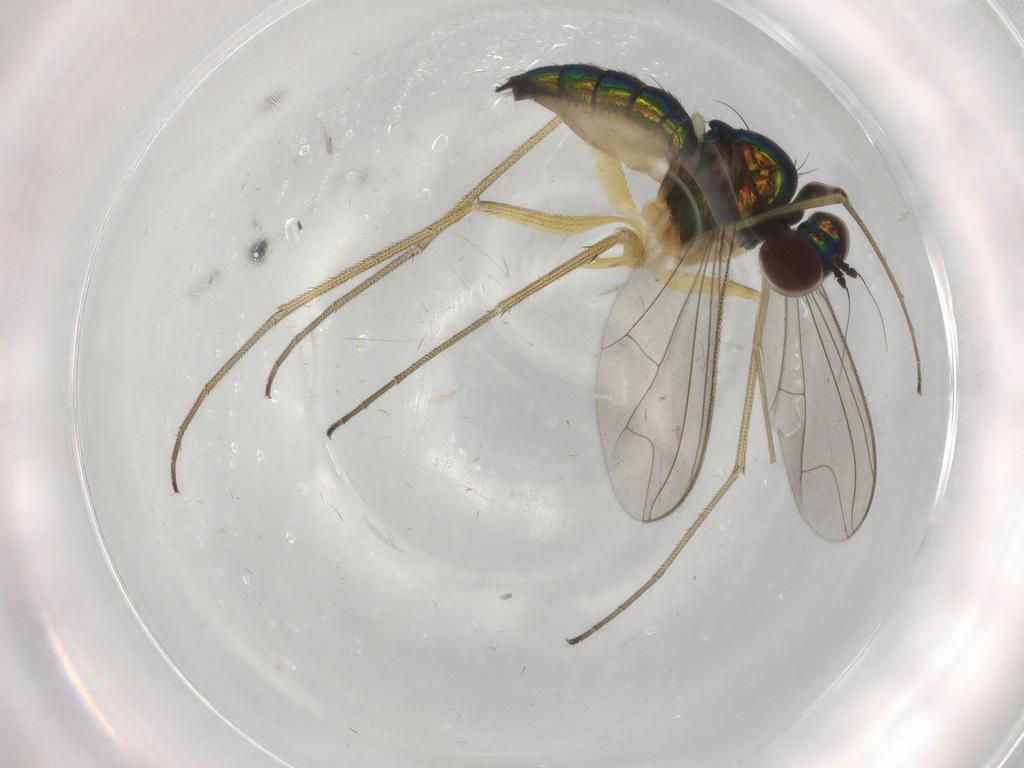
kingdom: Animalia
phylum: Arthropoda
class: Insecta
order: Diptera
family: Dolichopodidae
